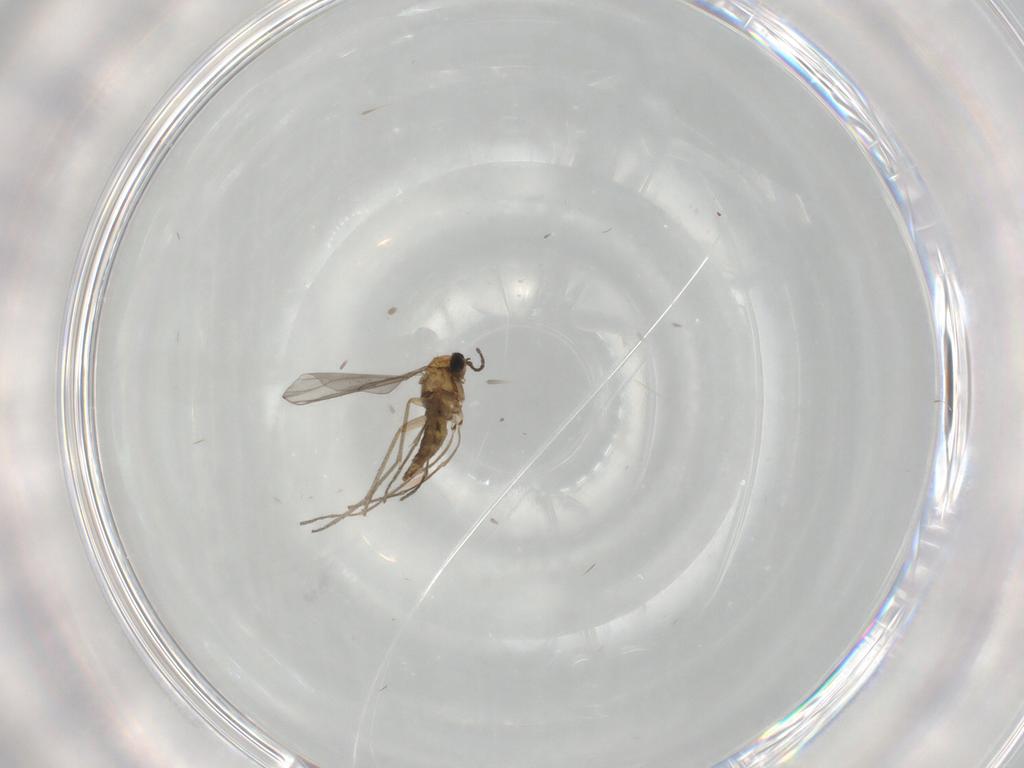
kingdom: Animalia
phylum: Arthropoda
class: Insecta
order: Diptera
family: Sciaridae
